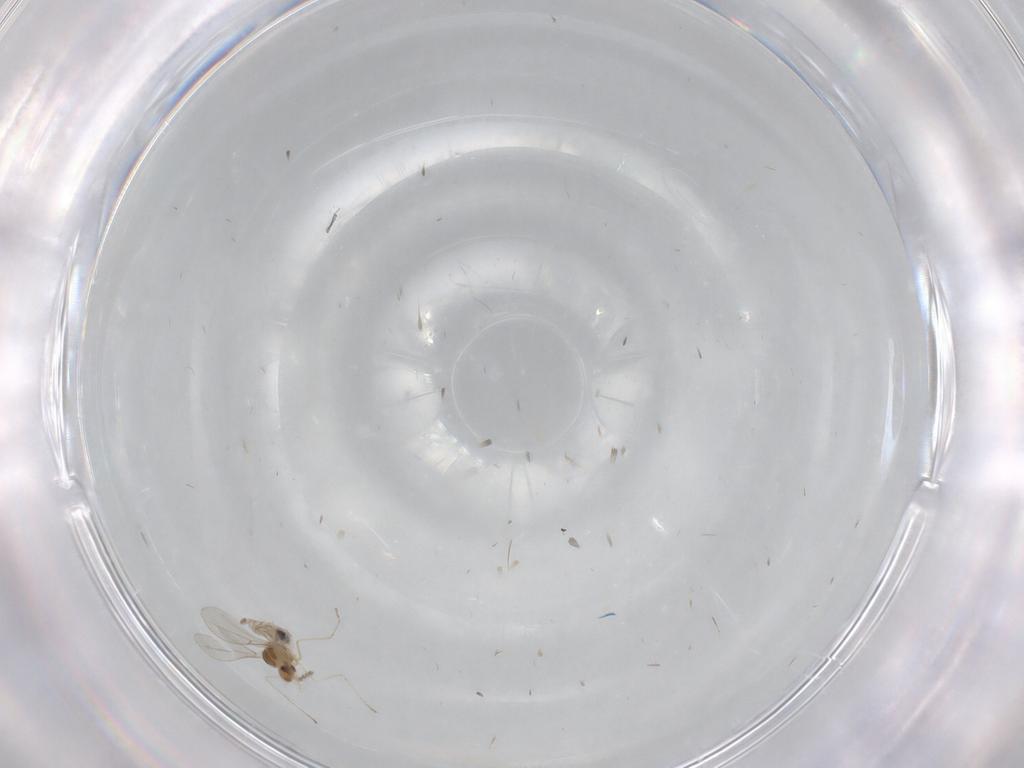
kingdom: Animalia
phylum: Arthropoda
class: Insecta
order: Diptera
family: Cecidomyiidae
